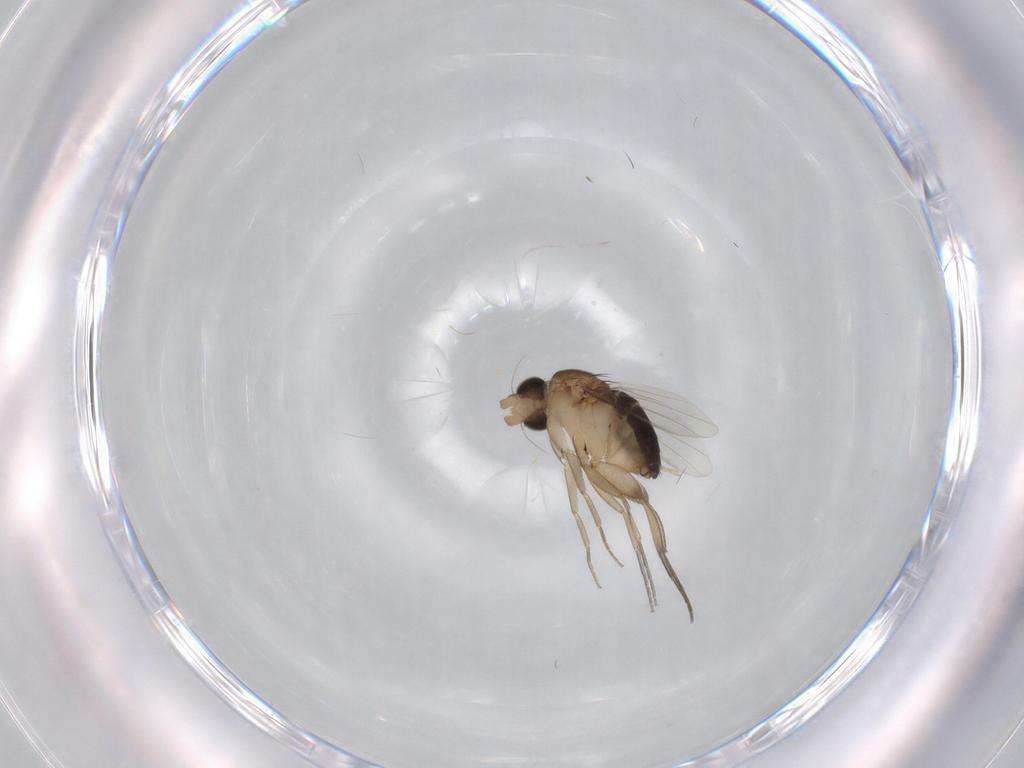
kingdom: Animalia
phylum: Arthropoda
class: Insecta
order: Diptera
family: Ceratopogonidae
